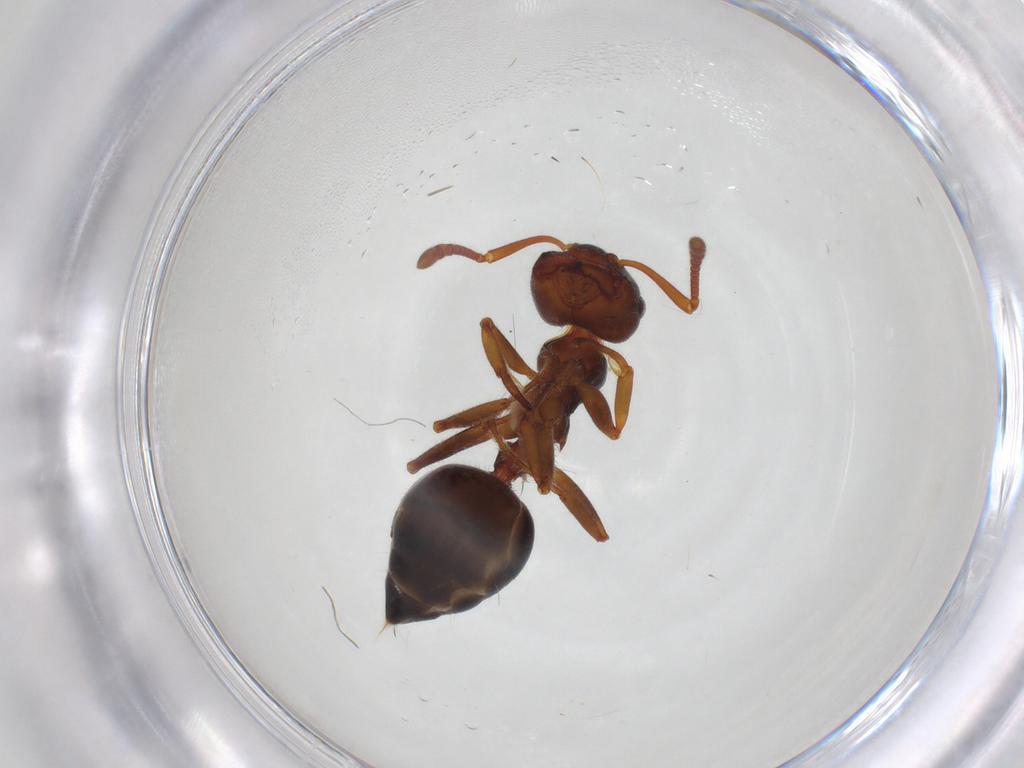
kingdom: Animalia
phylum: Arthropoda
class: Insecta
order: Hymenoptera
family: Formicidae
